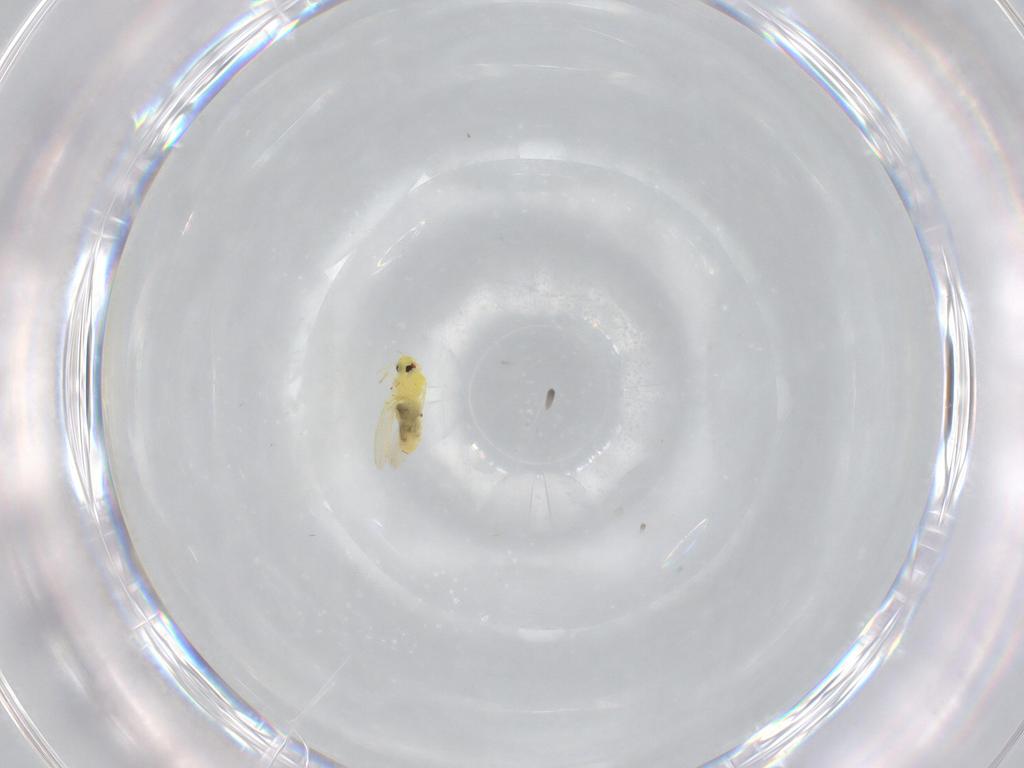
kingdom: Animalia
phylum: Arthropoda
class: Insecta
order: Hemiptera
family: Aleyrodidae
